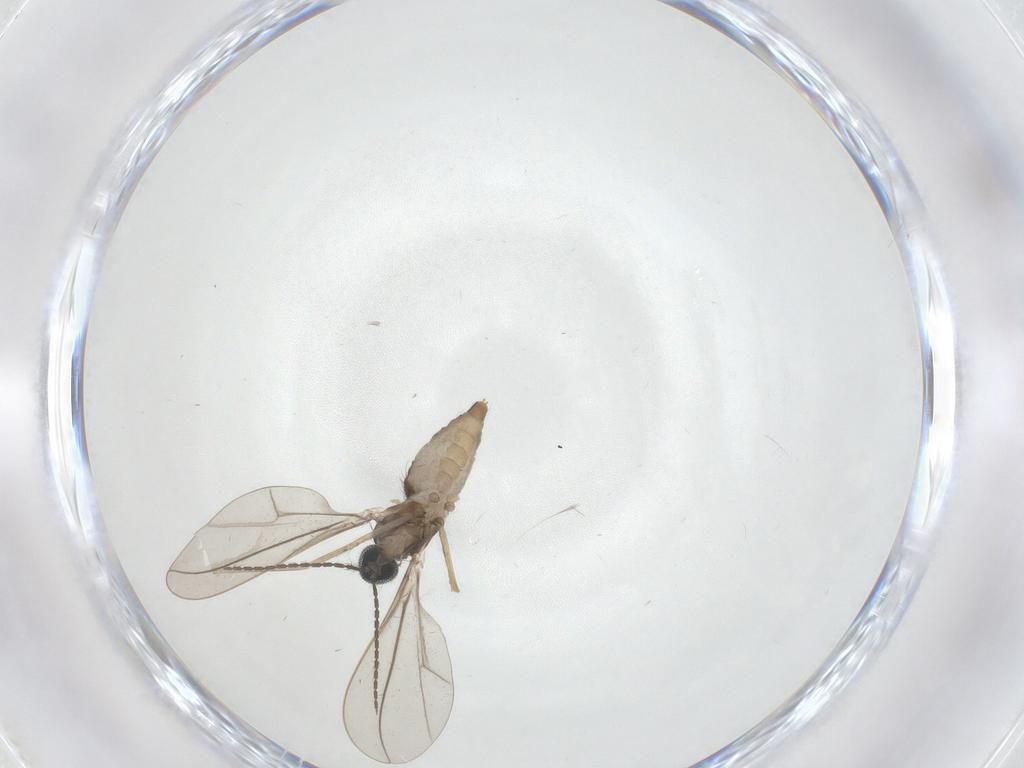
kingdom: Animalia
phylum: Arthropoda
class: Insecta
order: Diptera
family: Cecidomyiidae
